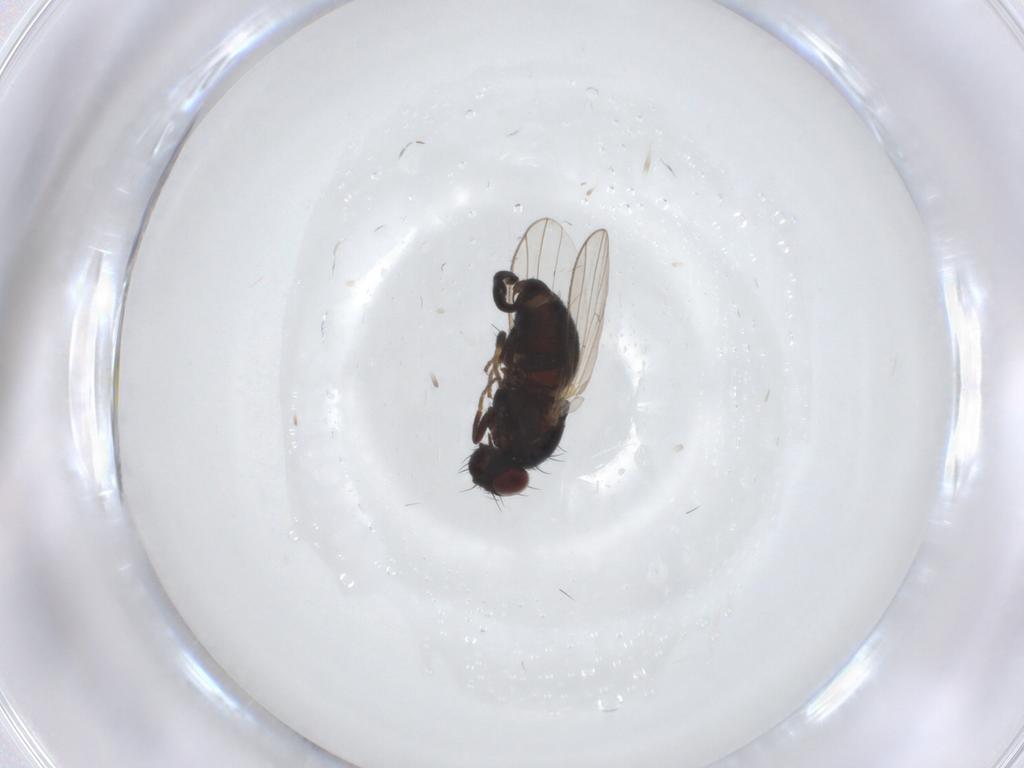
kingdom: Animalia
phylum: Arthropoda
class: Insecta
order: Diptera
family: Carnidae
